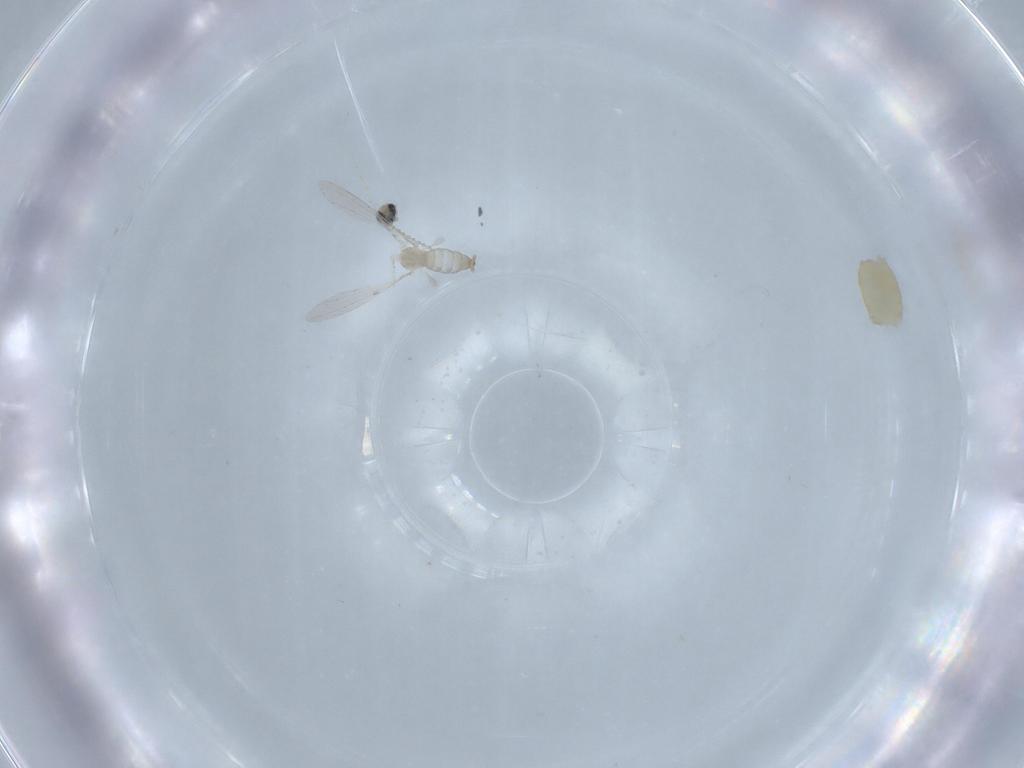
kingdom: Animalia
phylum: Arthropoda
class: Insecta
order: Diptera
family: Cecidomyiidae
